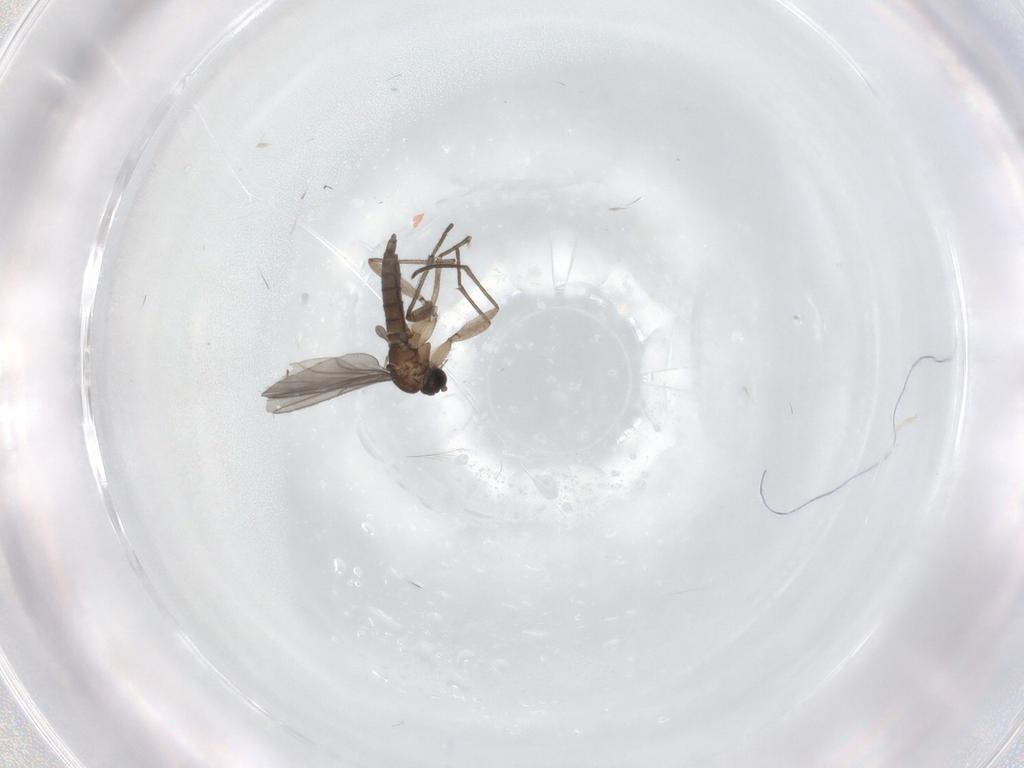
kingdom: Animalia
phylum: Arthropoda
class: Insecta
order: Diptera
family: Sciaridae
